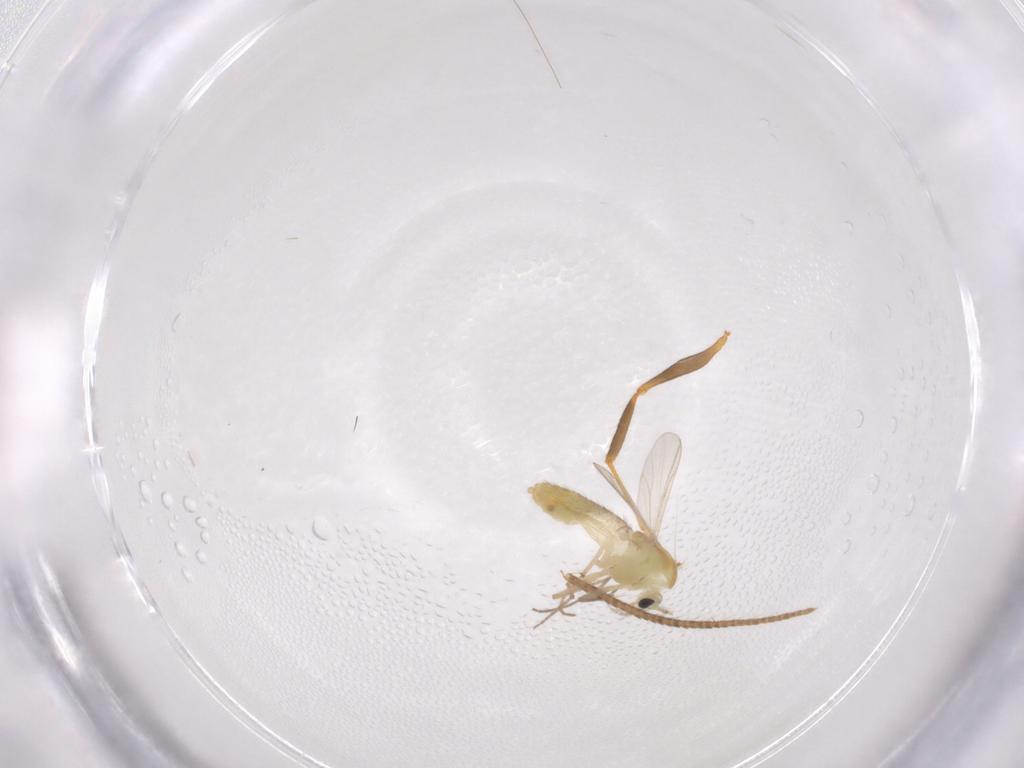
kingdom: Animalia
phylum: Arthropoda
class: Insecta
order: Diptera
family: Chironomidae
